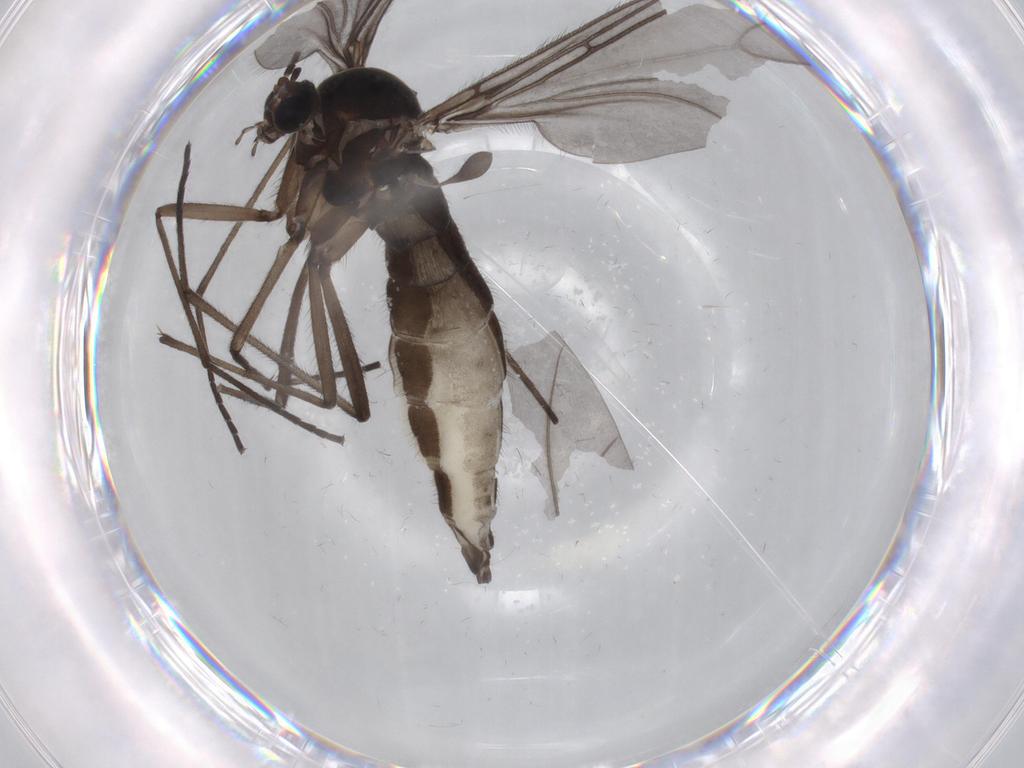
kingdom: Animalia
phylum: Arthropoda
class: Insecta
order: Diptera
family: Sciaridae
